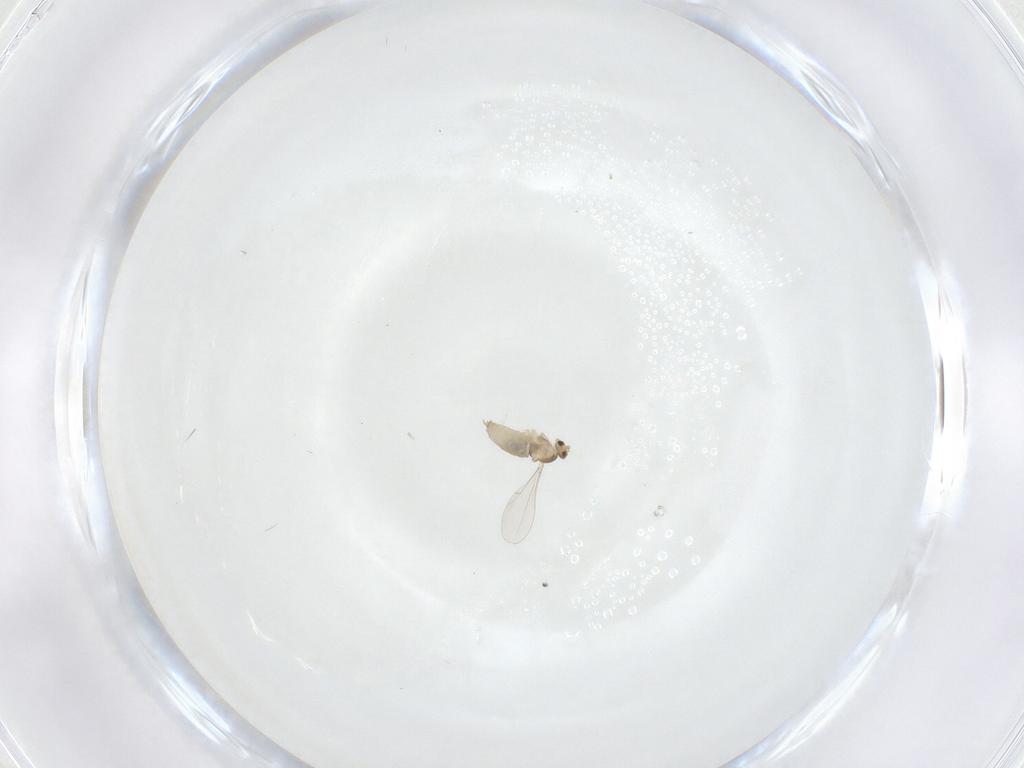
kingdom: Animalia
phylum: Arthropoda
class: Insecta
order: Diptera
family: Cecidomyiidae
